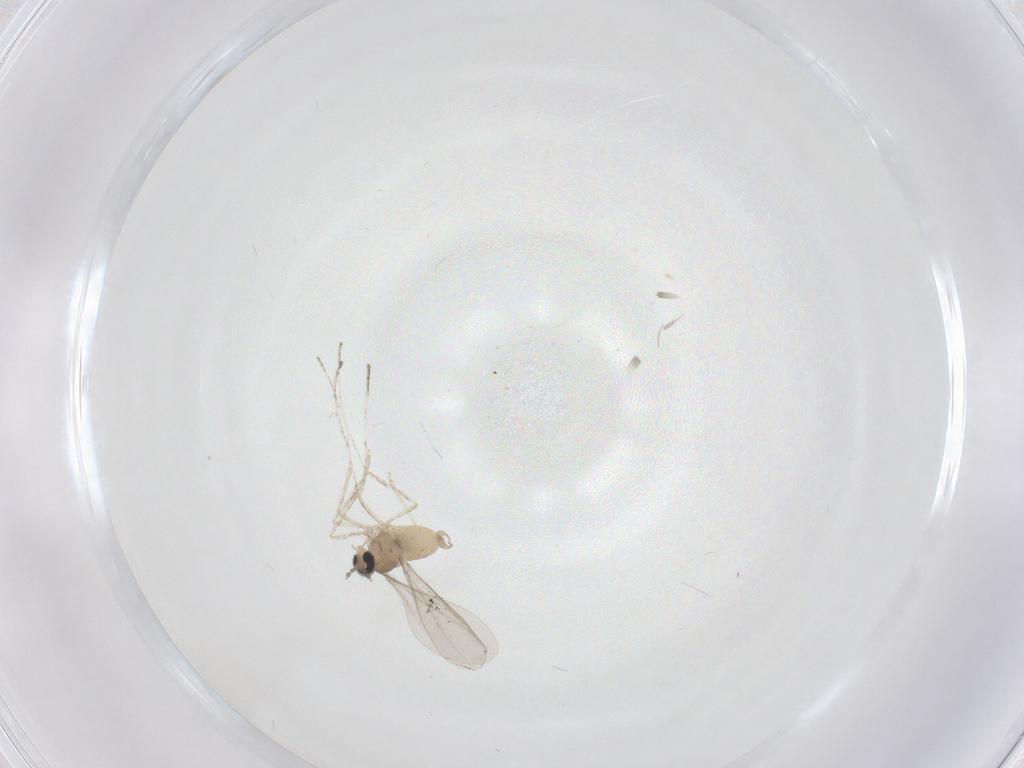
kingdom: Animalia
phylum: Arthropoda
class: Insecta
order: Diptera
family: Cecidomyiidae
